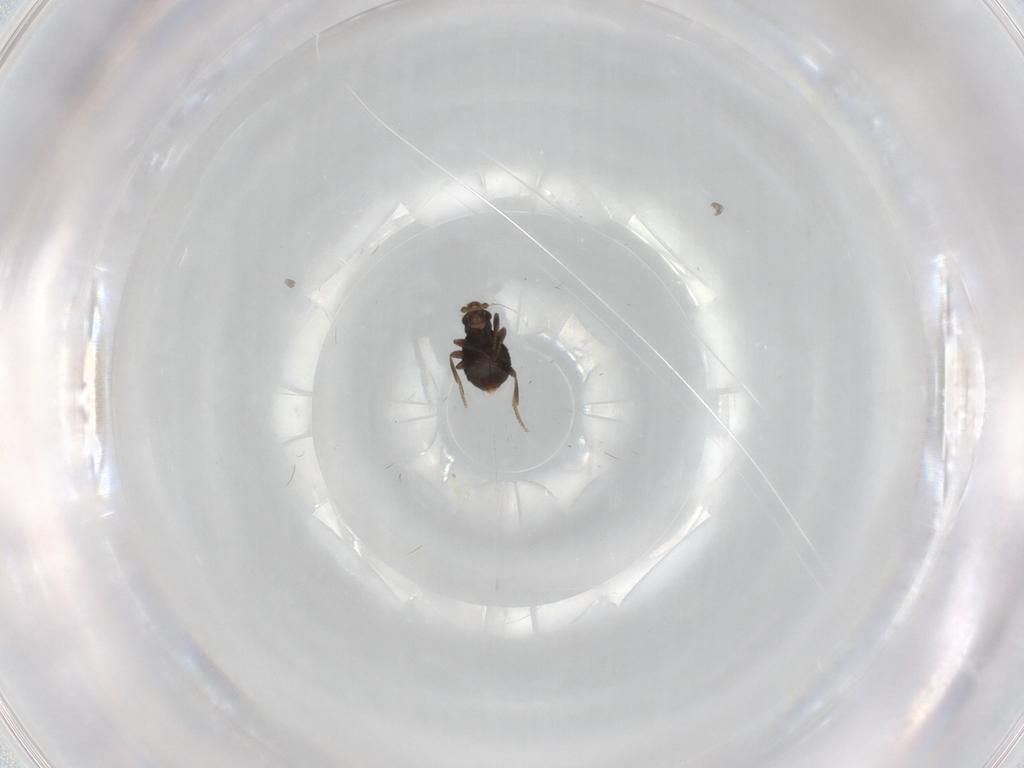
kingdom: Animalia
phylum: Arthropoda
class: Insecta
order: Diptera
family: Phoridae
